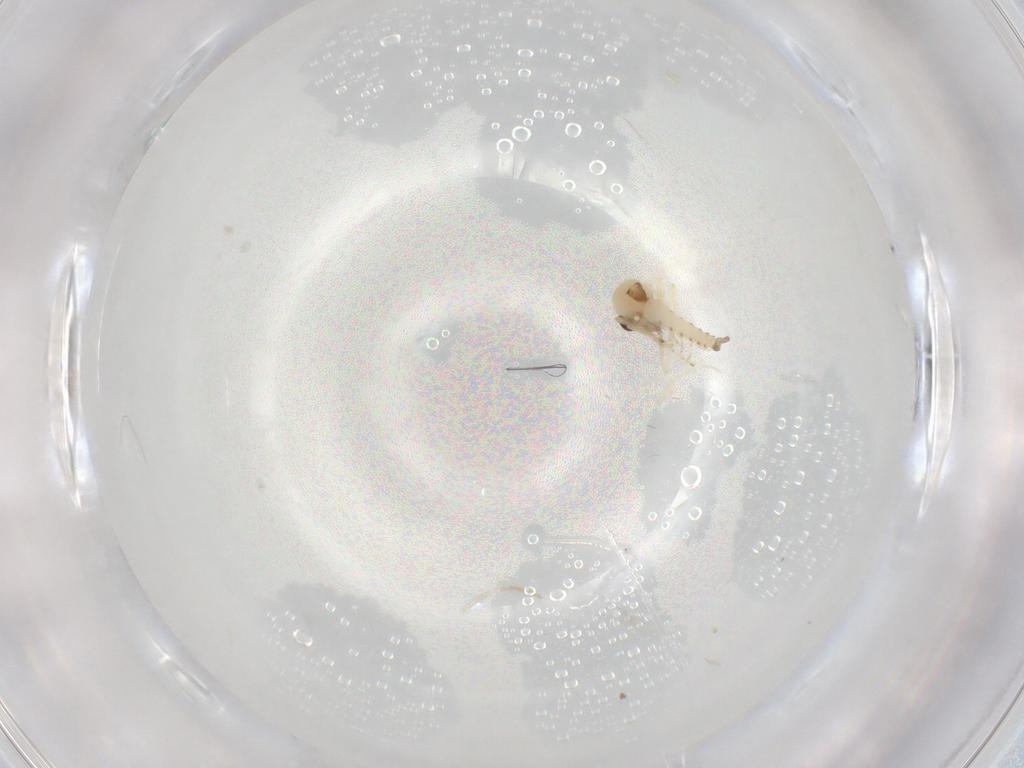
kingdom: Animalia
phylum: Arthropoda
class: Insecta
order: Diptera
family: Ceratopogonidae
